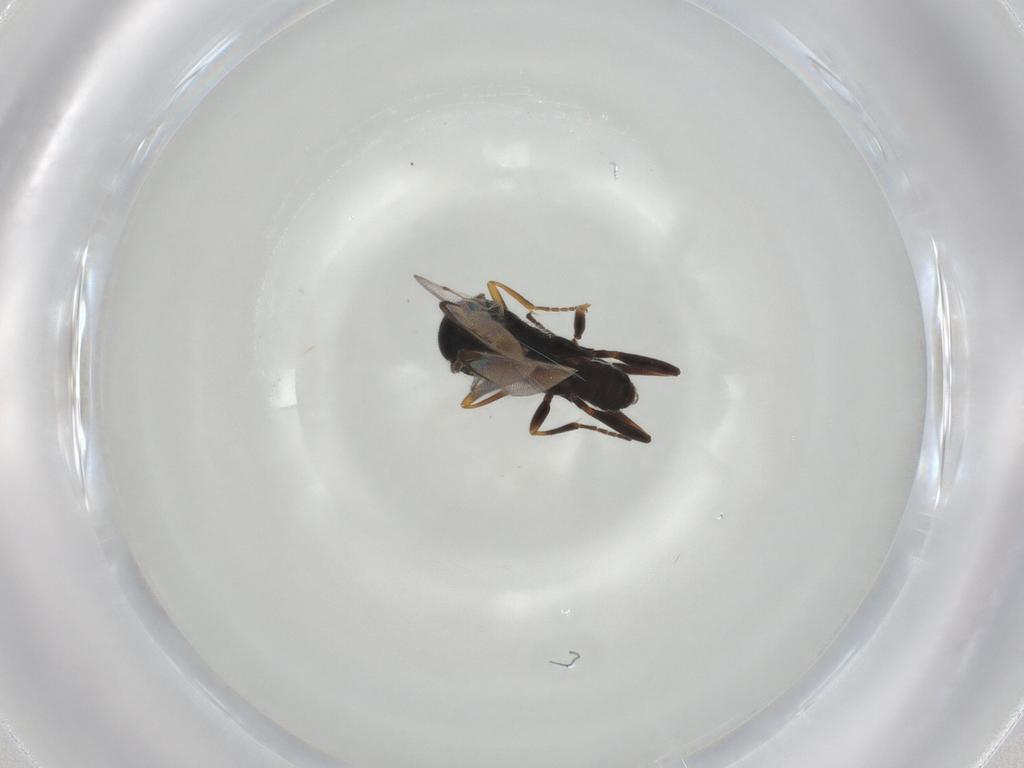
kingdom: Animalia
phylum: Arthropoda
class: Insecta
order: Hymenoptera
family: Braconidae
